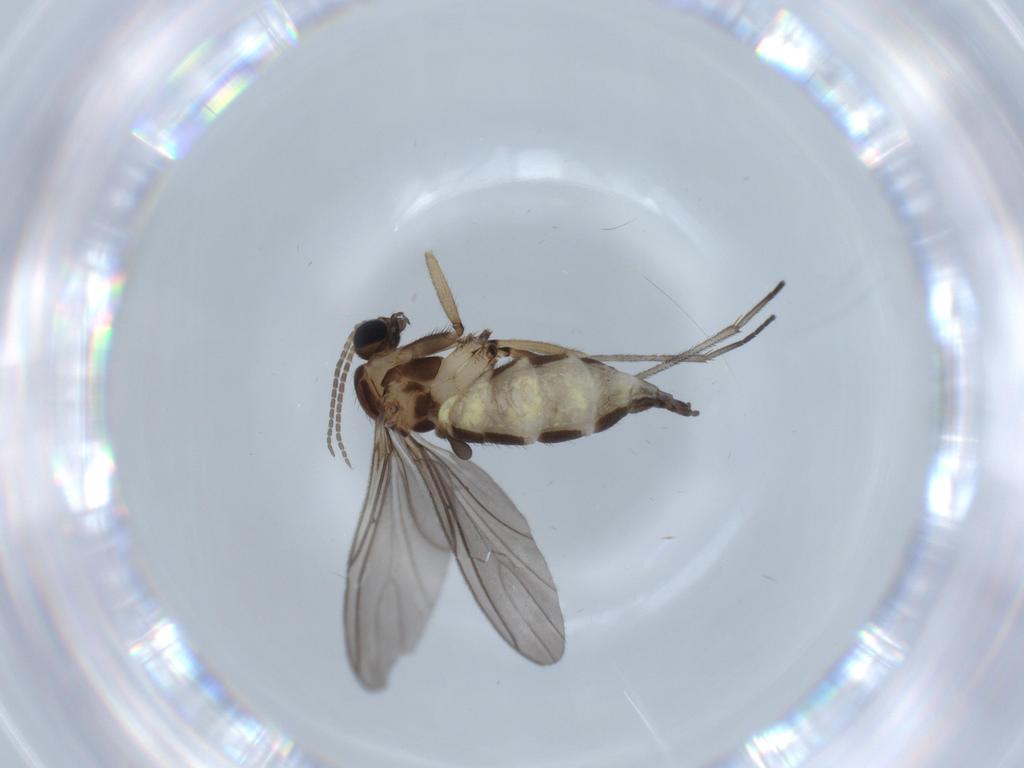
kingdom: Animalia
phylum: Arthropoda
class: Insecta
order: Diptera
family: Sciaridae
